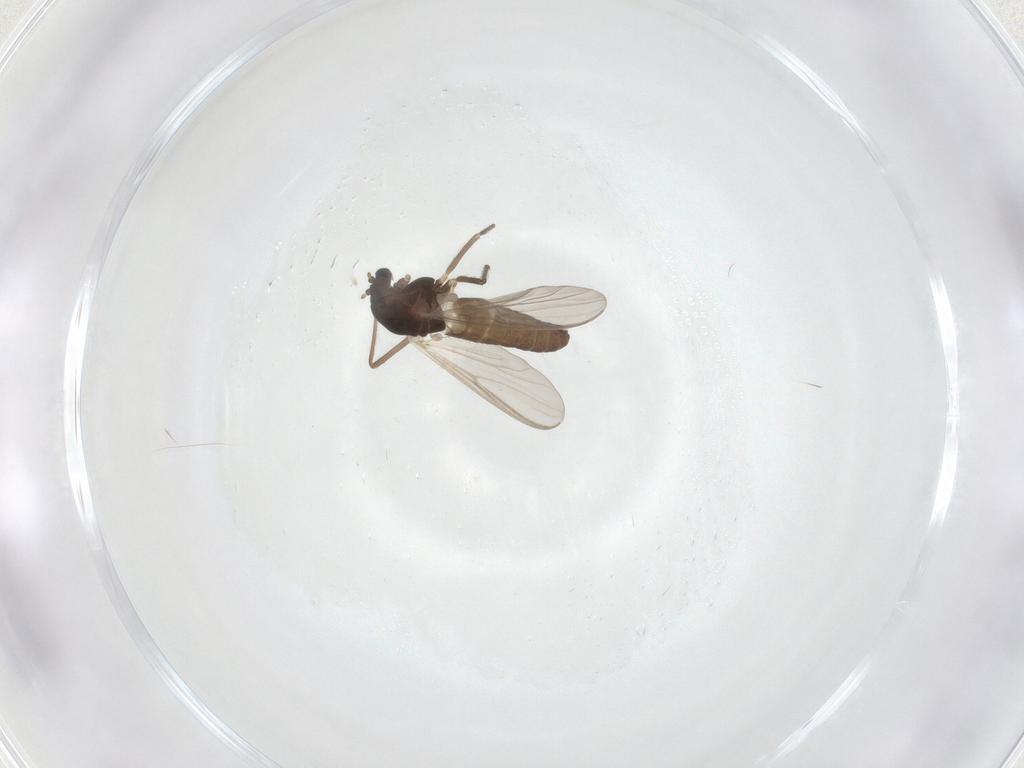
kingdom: Animalia
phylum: Arthropoda
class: Insecta
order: Diptera
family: Chironomidae
